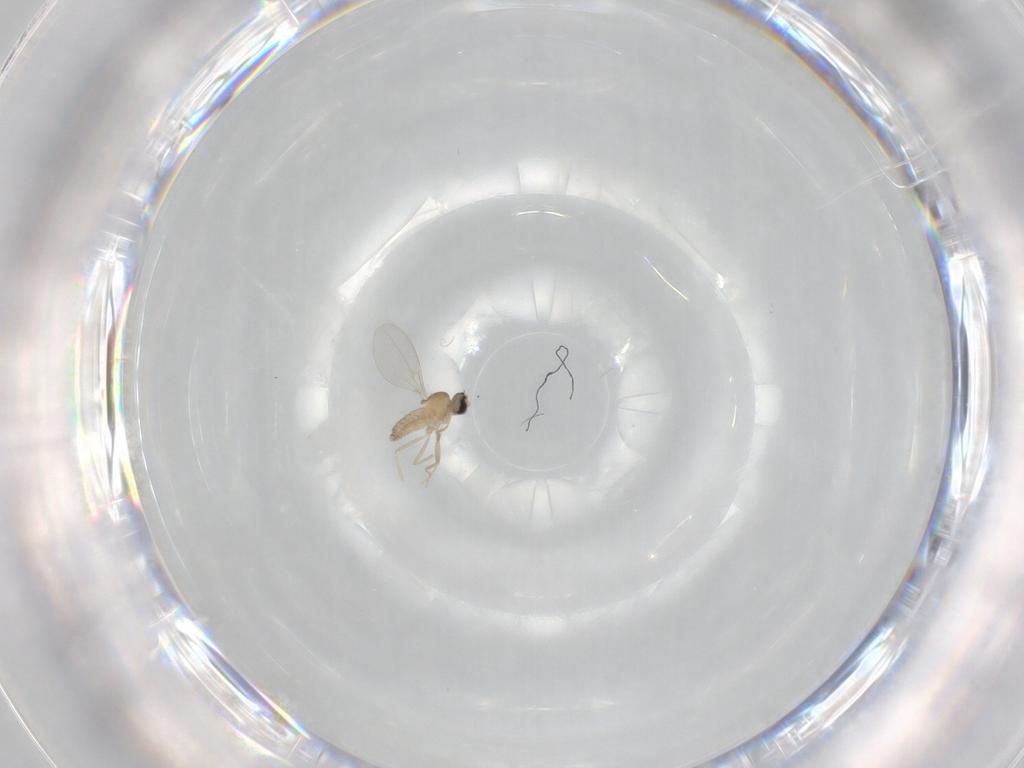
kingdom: Animalia
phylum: Arthropoda
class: Insecta
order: Diptera
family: Cecidomyiidae
